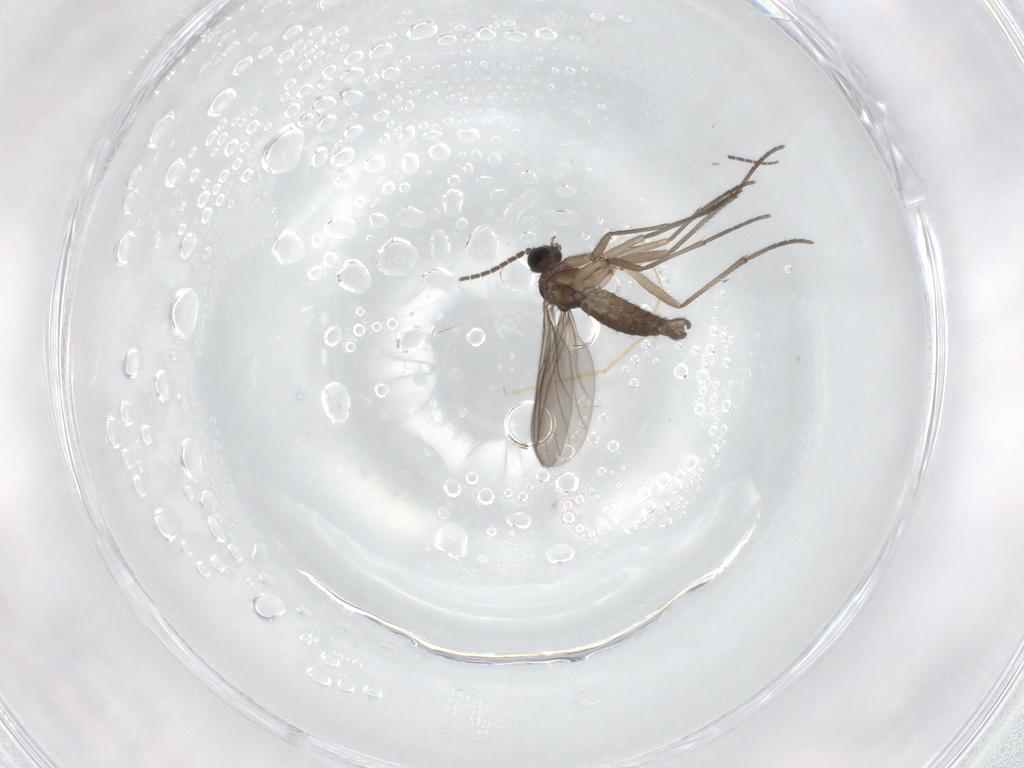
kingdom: Animalia
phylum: Arthropoda
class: Insecta
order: Diptera
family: Sciaridae
